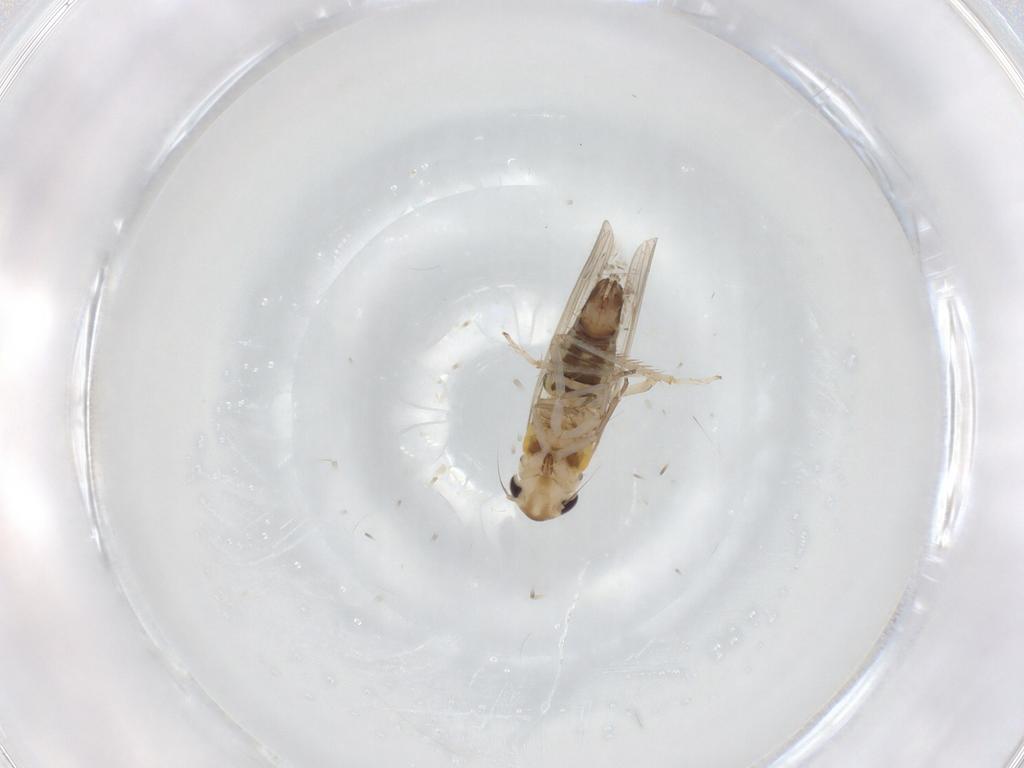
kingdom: Animalia
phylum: Arthropoda
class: Insecta
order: Hemiptera
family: Cicadellidae
